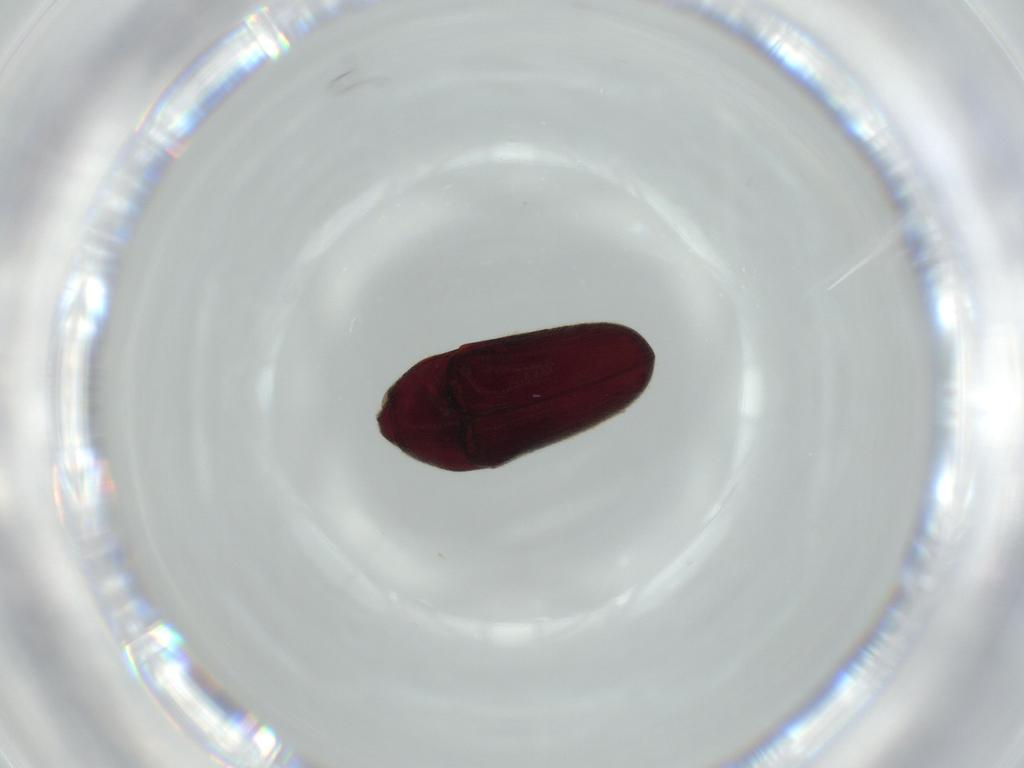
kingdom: Animalia
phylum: Arthropoda
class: Insecta
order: Coleoptera
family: Throscidae
